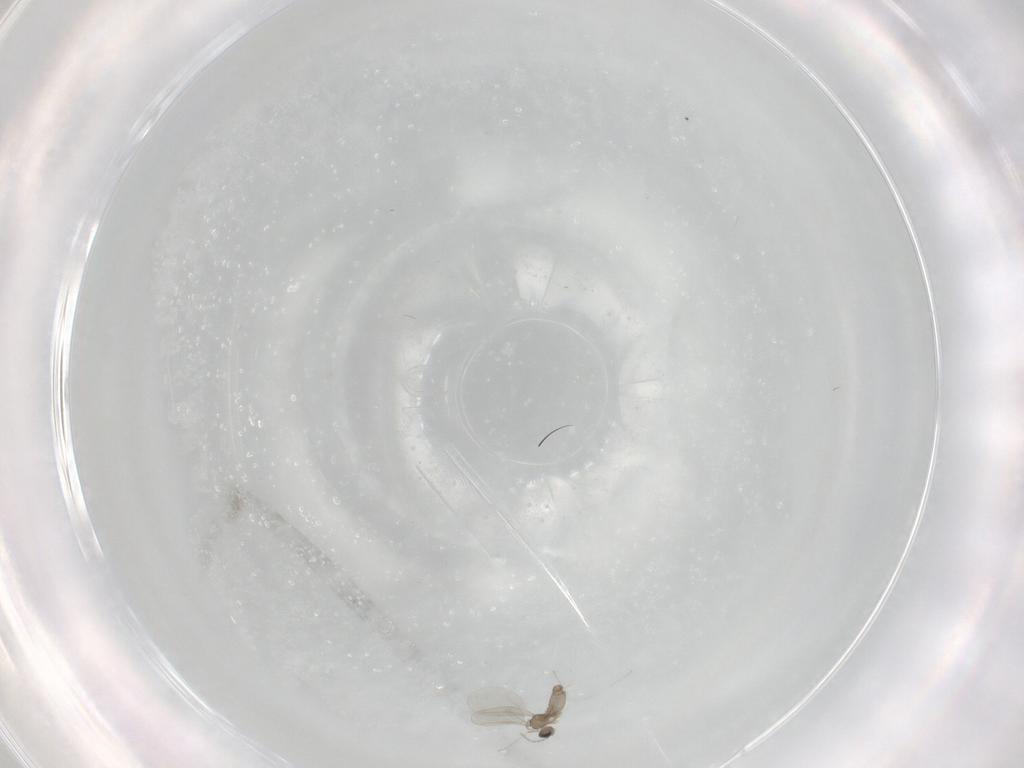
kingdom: Animalia
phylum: Arthropoda
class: Insecta
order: Diptera
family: Cecidomyiidae
